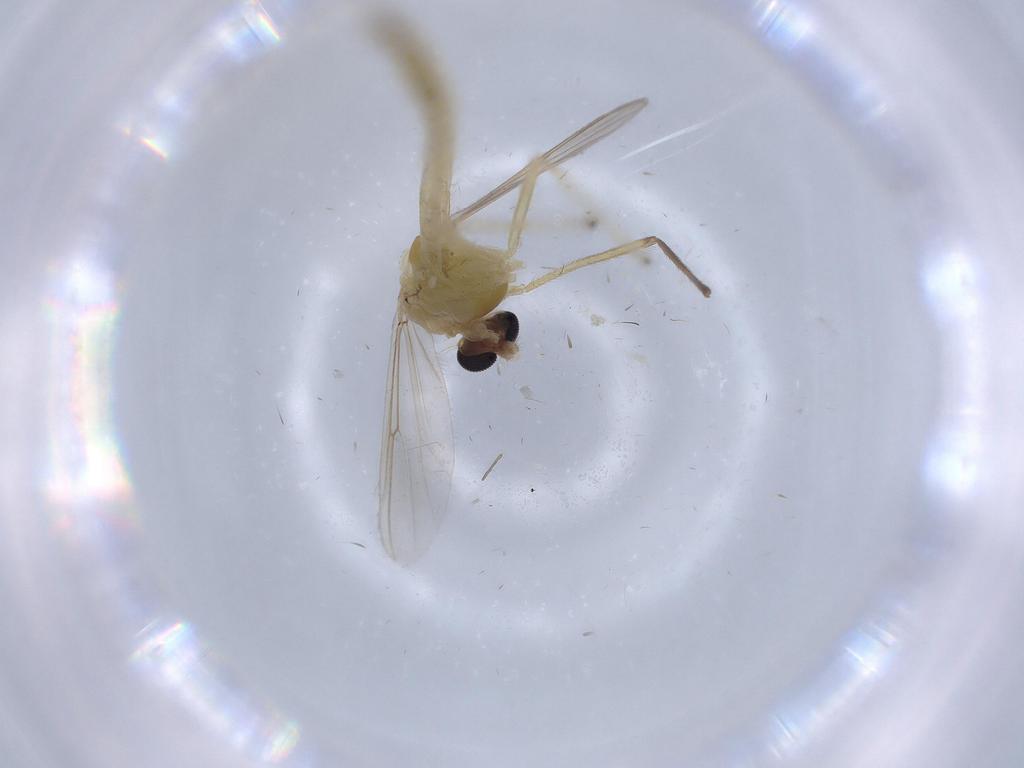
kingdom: Animalia
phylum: Arthropoda
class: Insecta
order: Diptera
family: Chironomidae
